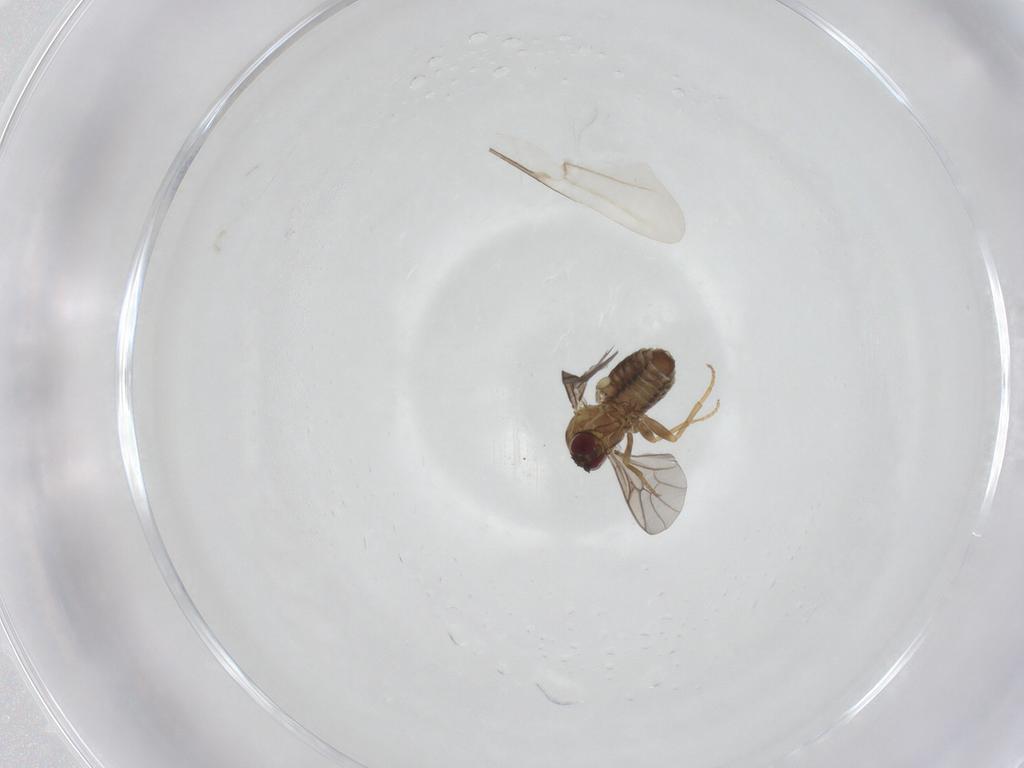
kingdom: Animalia
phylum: Arthropoda
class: Insecta
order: Diptera
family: Mythicomyiidae
